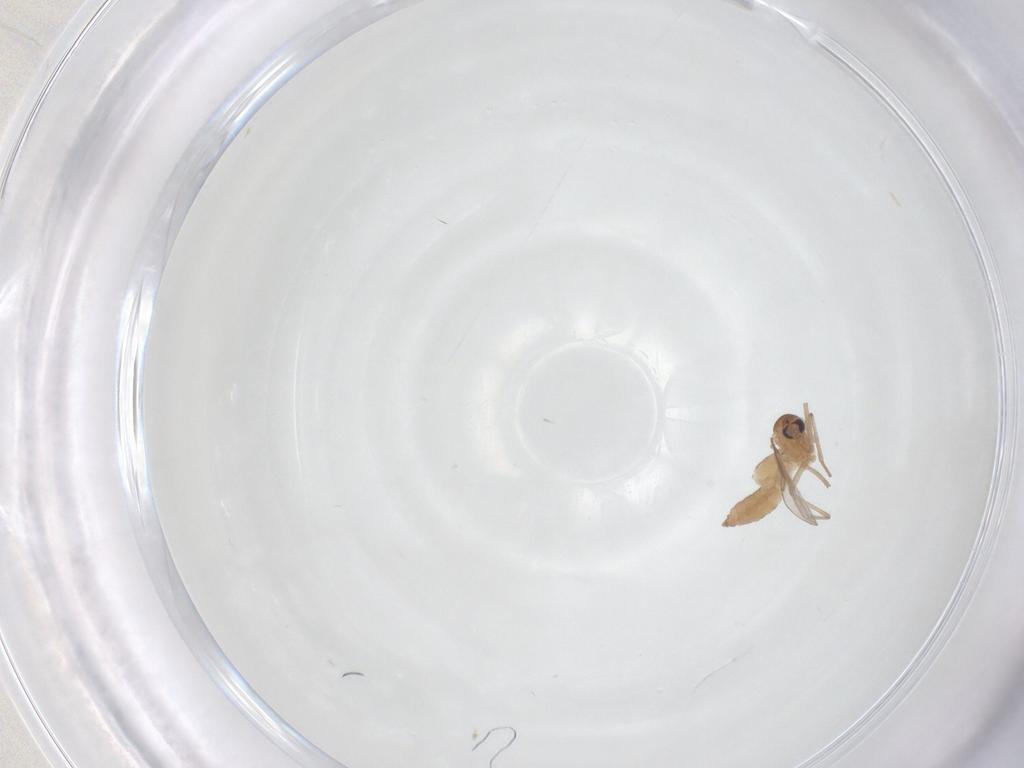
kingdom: Animalia
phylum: Arthropoda
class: Insecta
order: Diptera
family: Cecidomyiidae
